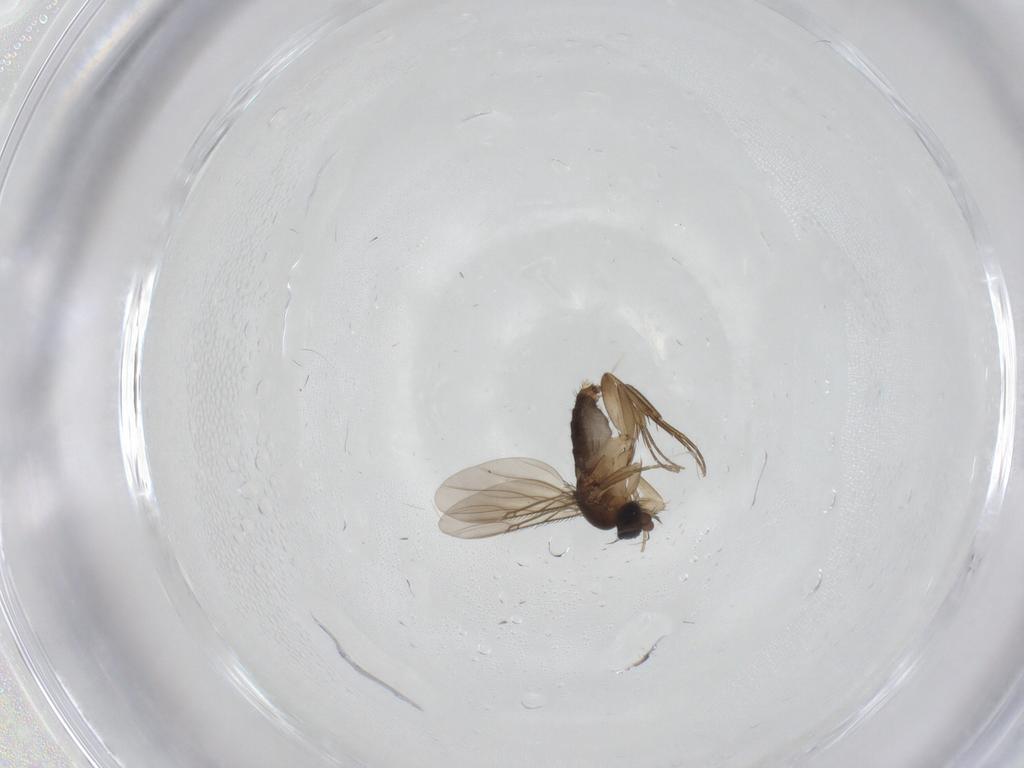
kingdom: Animalia
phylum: Arthropoda
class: Insecta
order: Diptera
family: Phoridae
